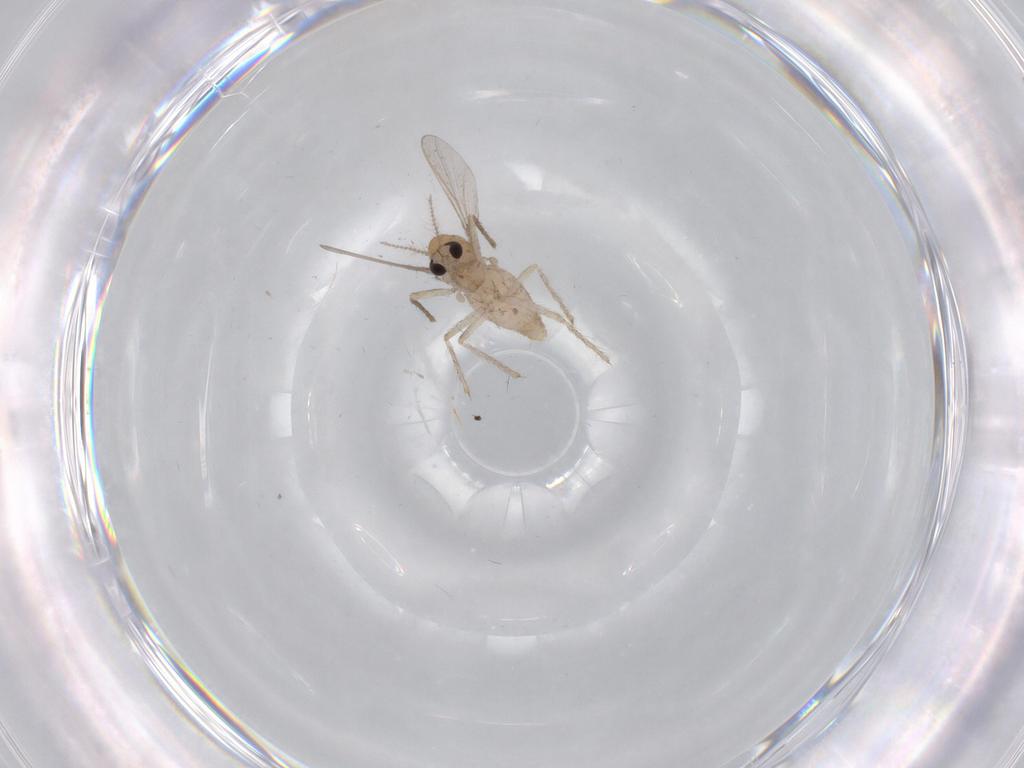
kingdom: Animalia
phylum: Arthropoda
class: Insecta
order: Diptera
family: Chironomidae
